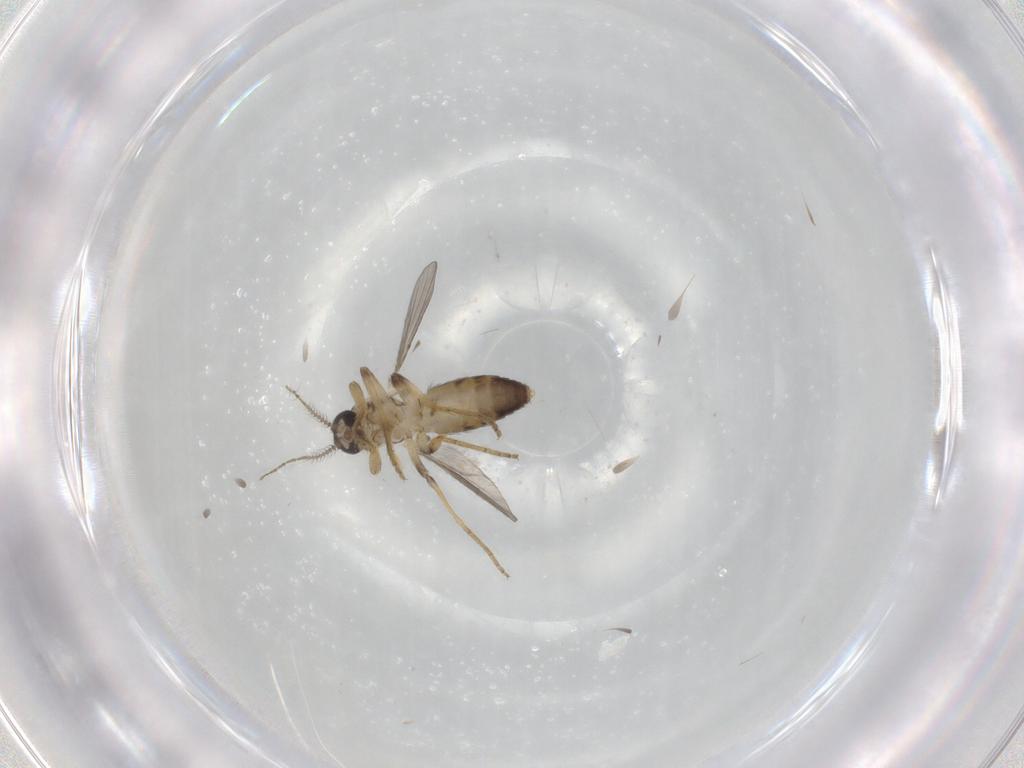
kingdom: Animalia
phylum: Arthropoda
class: Insecta
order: Diptera
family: Ceratopogonidae
